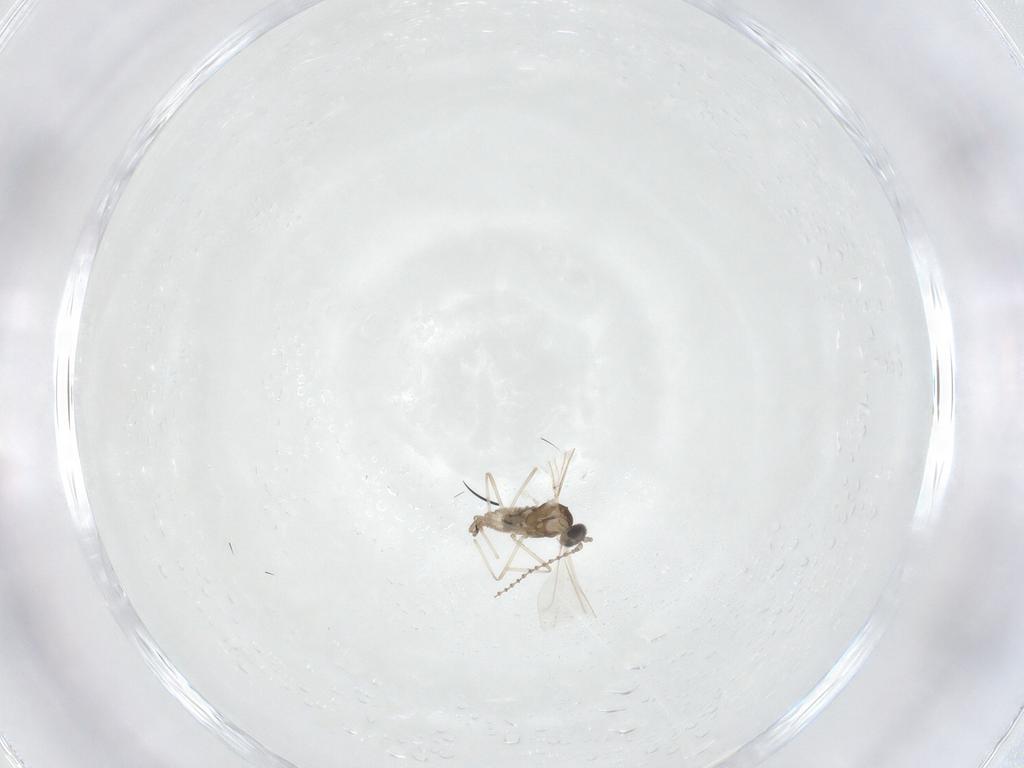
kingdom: Animalia
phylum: Arthropoda
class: Insecta
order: Diptera
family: Cecidomyiidae
